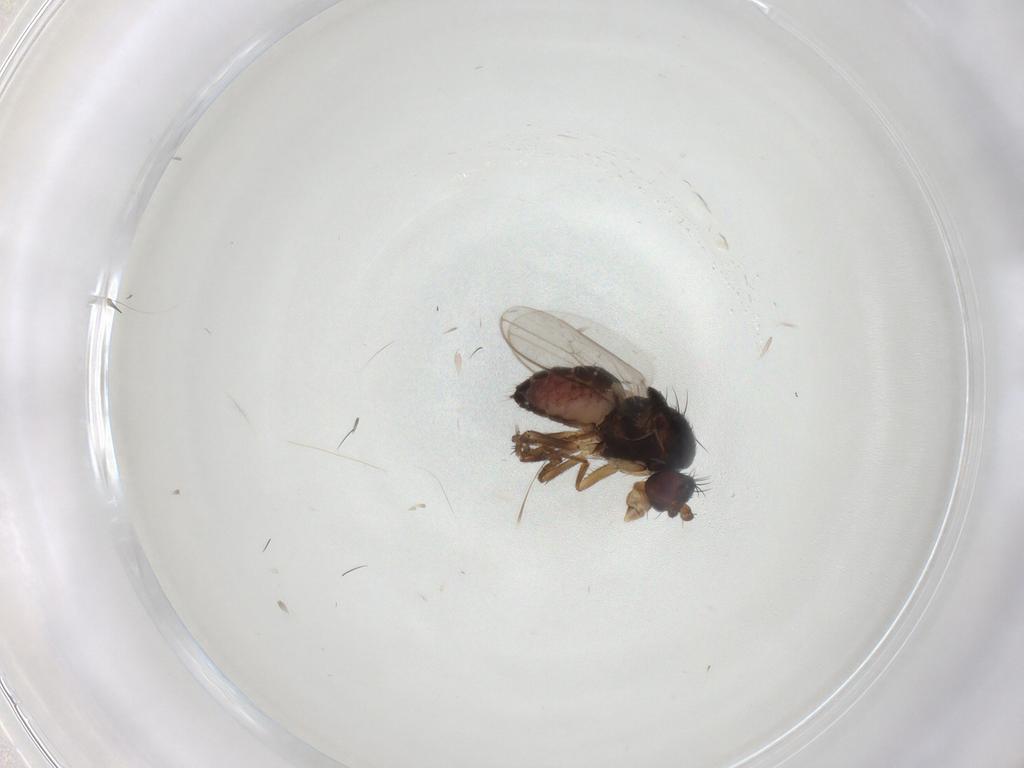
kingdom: Animalia
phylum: Arthropoda
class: Insecta
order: Diptera
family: Sphaeroceridae
